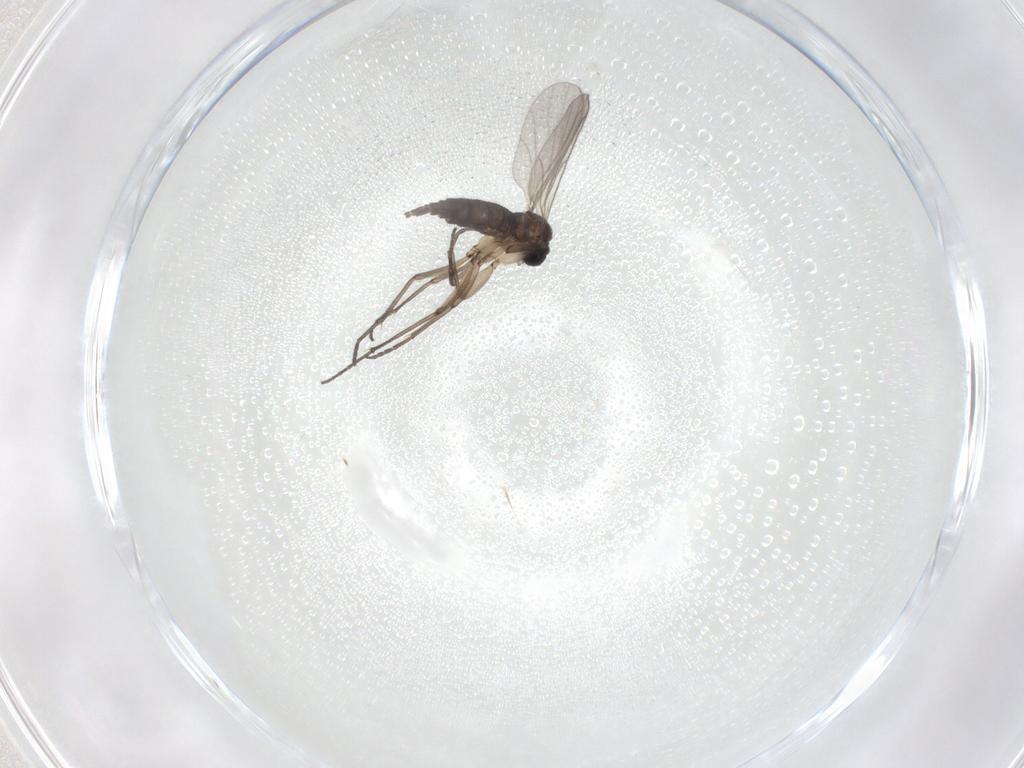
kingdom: Animalia
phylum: Arthropoda
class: Insecta
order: Diptera
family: Sciaridae
